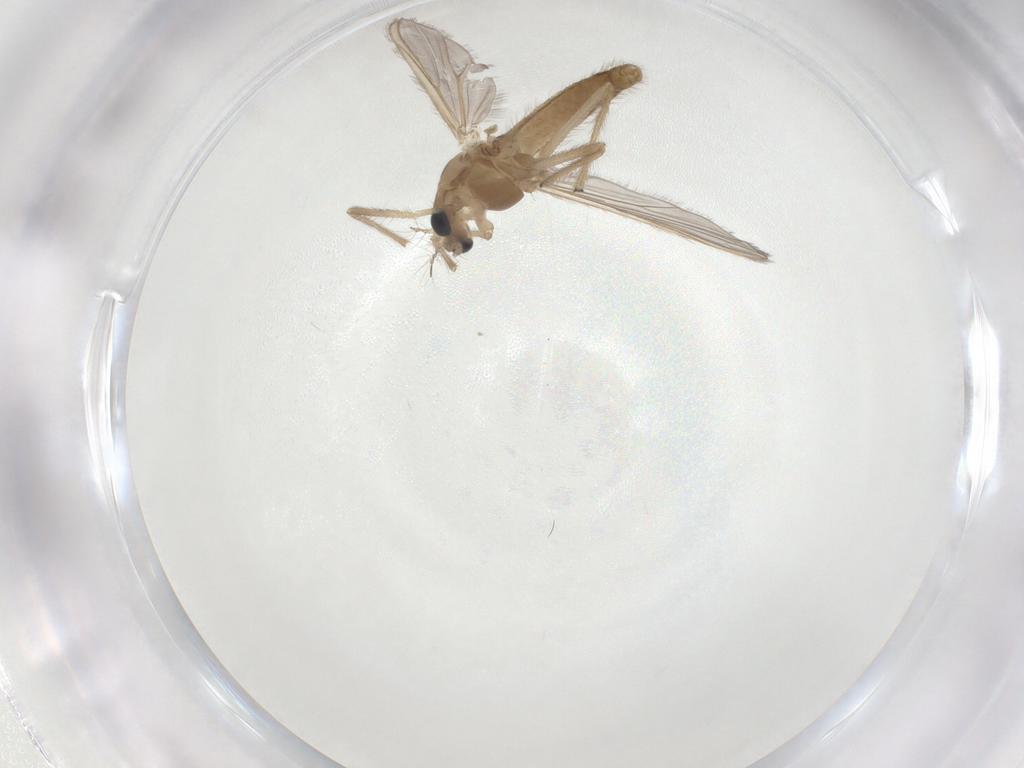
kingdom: Animalia
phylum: Arthropoda
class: Insecta
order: Diptera
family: Chironomidae
